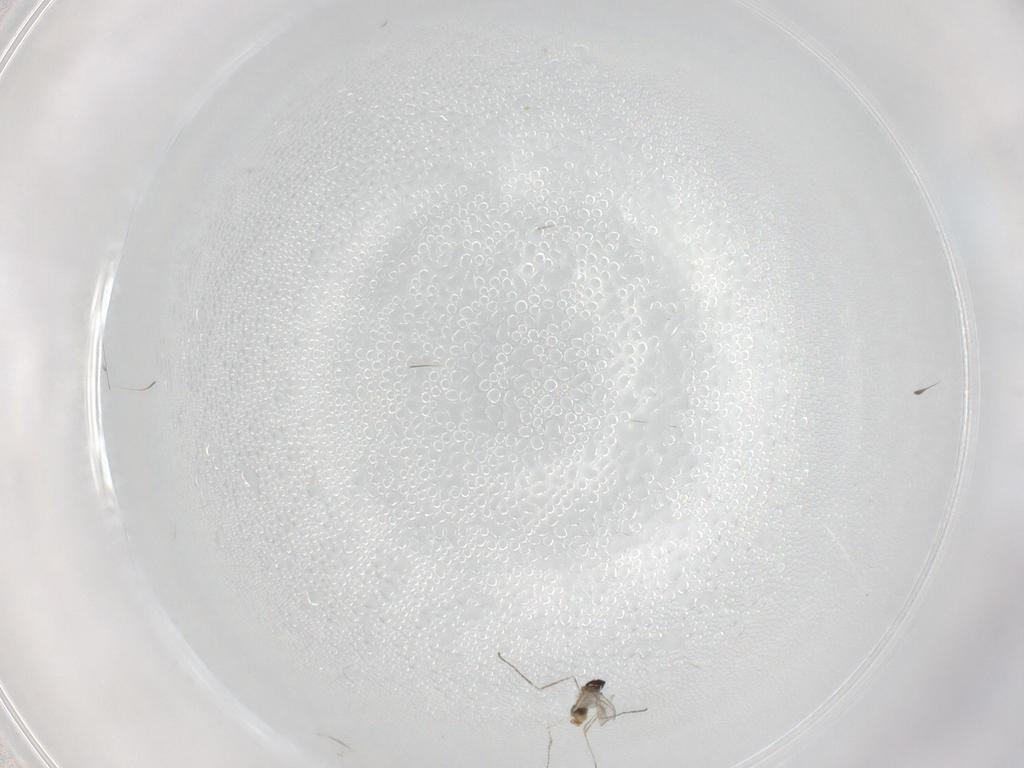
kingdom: Animalia
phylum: Arthropoda
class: Insecta
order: Diptera
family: Cecidomyiidae
